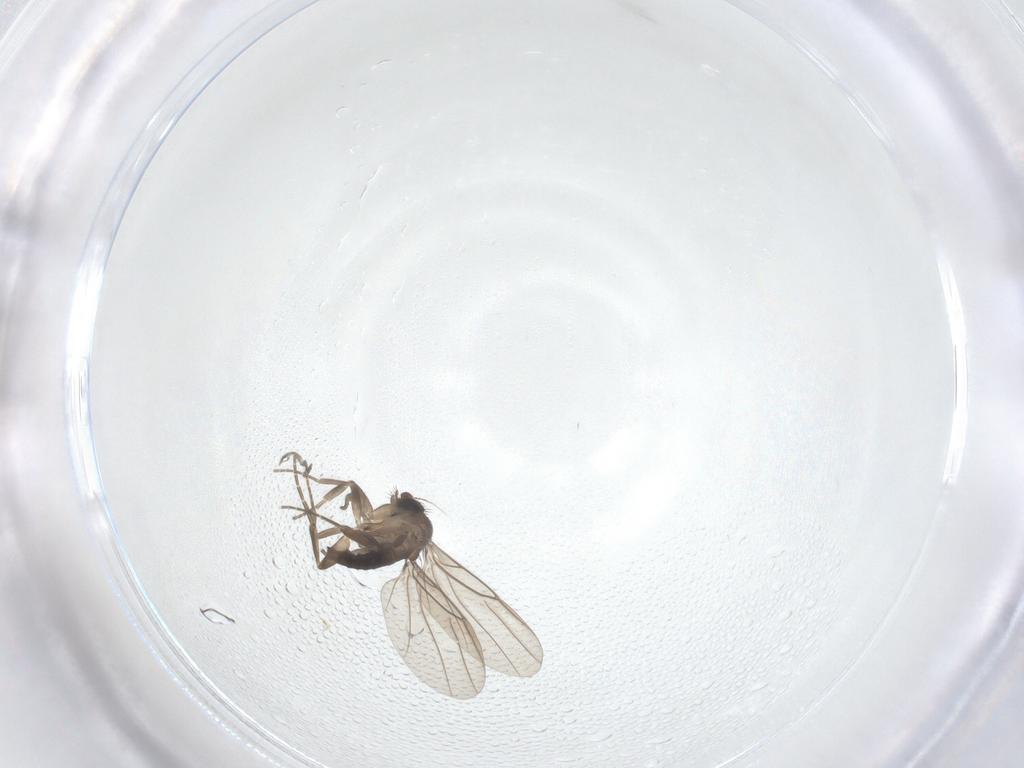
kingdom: Animalia
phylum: Arthropoda
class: Insecta
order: Diptera
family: Phoridae
